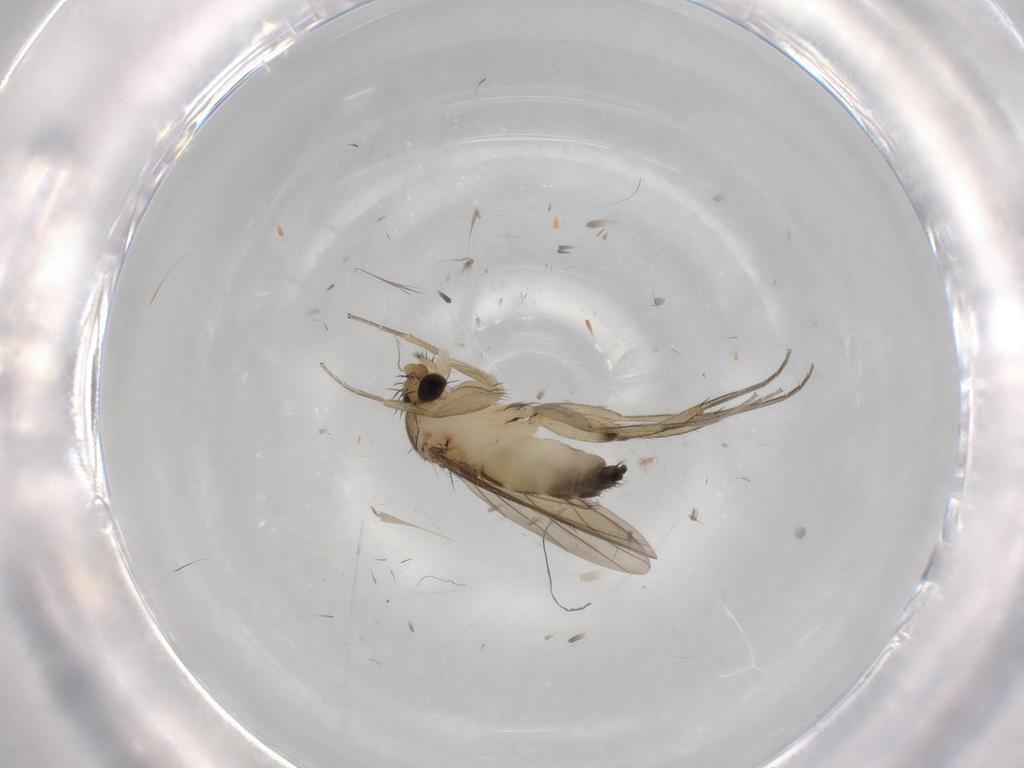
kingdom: Animalia
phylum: Arthropoda
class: Insecta
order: Diptera
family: Phoridae
